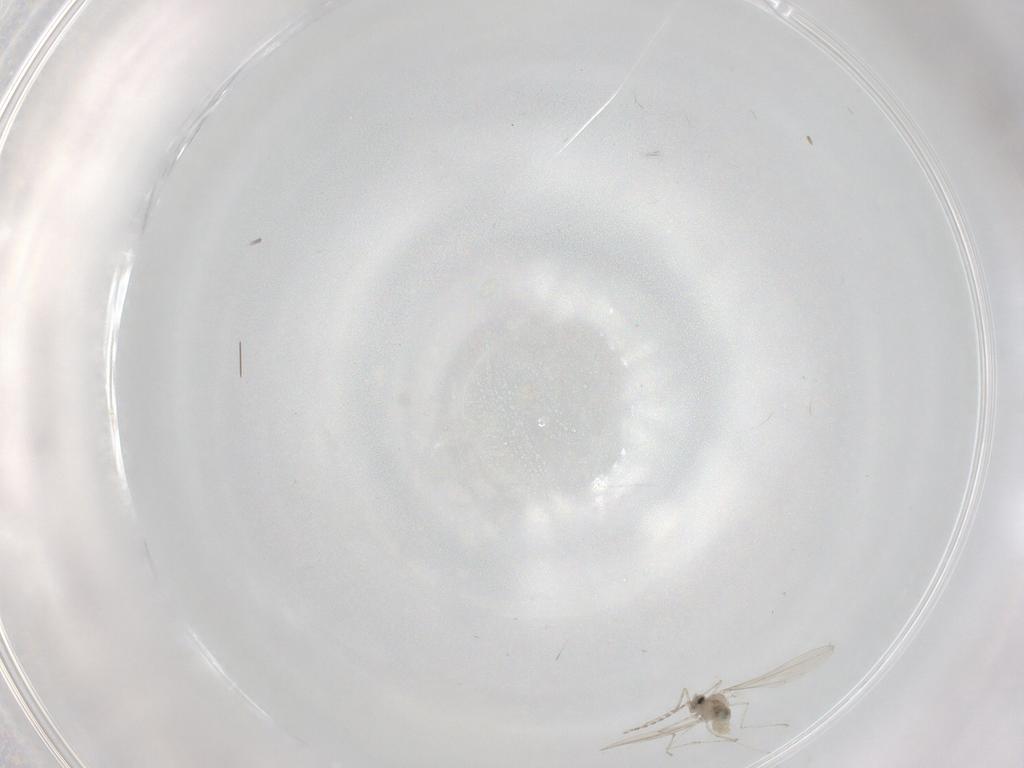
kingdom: Animalia
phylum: Arthropoda
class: Insecta
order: Diptera
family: Cecidomyiidae
